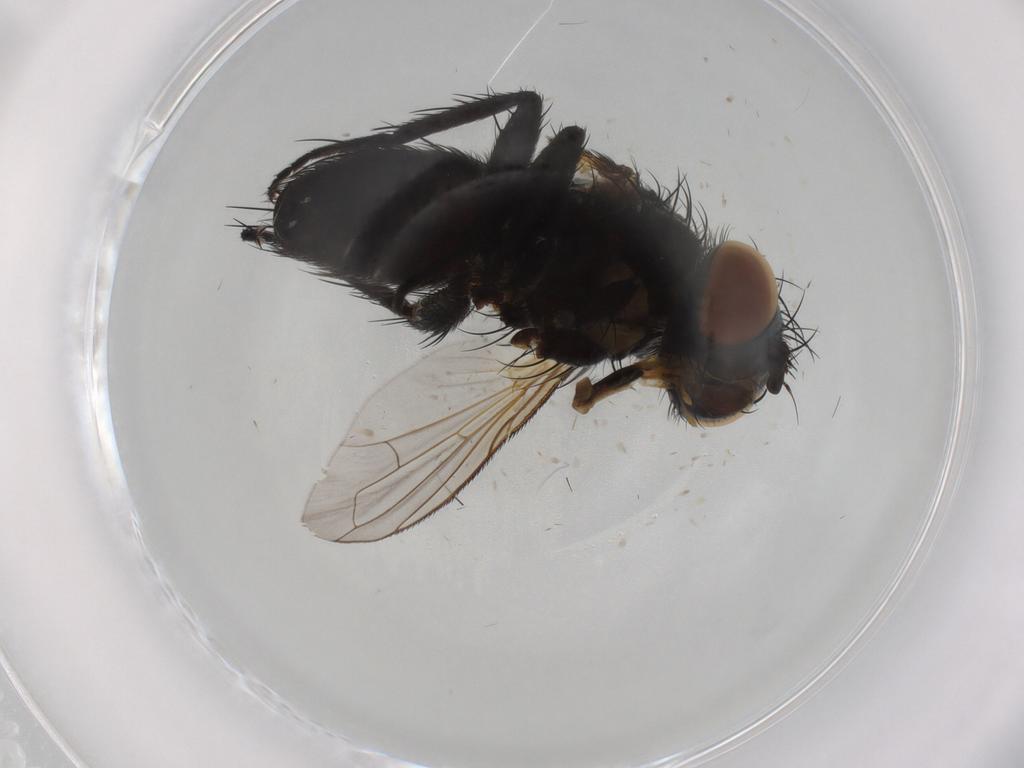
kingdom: Animalia
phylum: Arthropoda
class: Insecta
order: Diptera
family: Tachinidae
